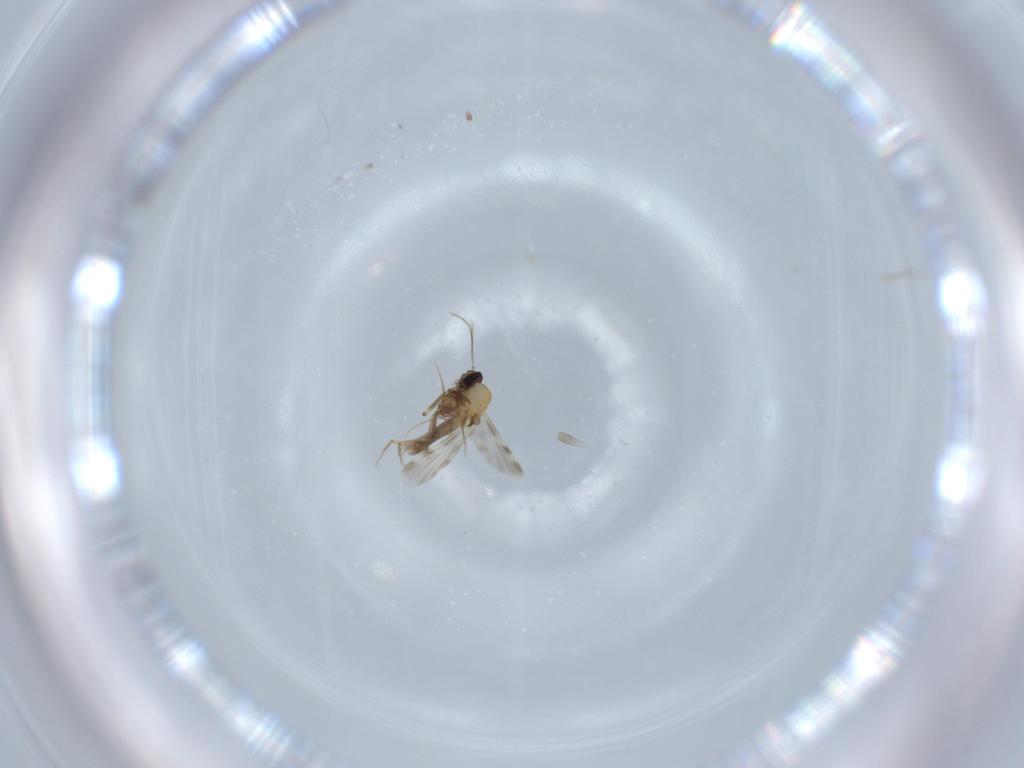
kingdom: Animalia
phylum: Arthropoda
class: Insecta
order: Diptera
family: Ceratopogonidae
